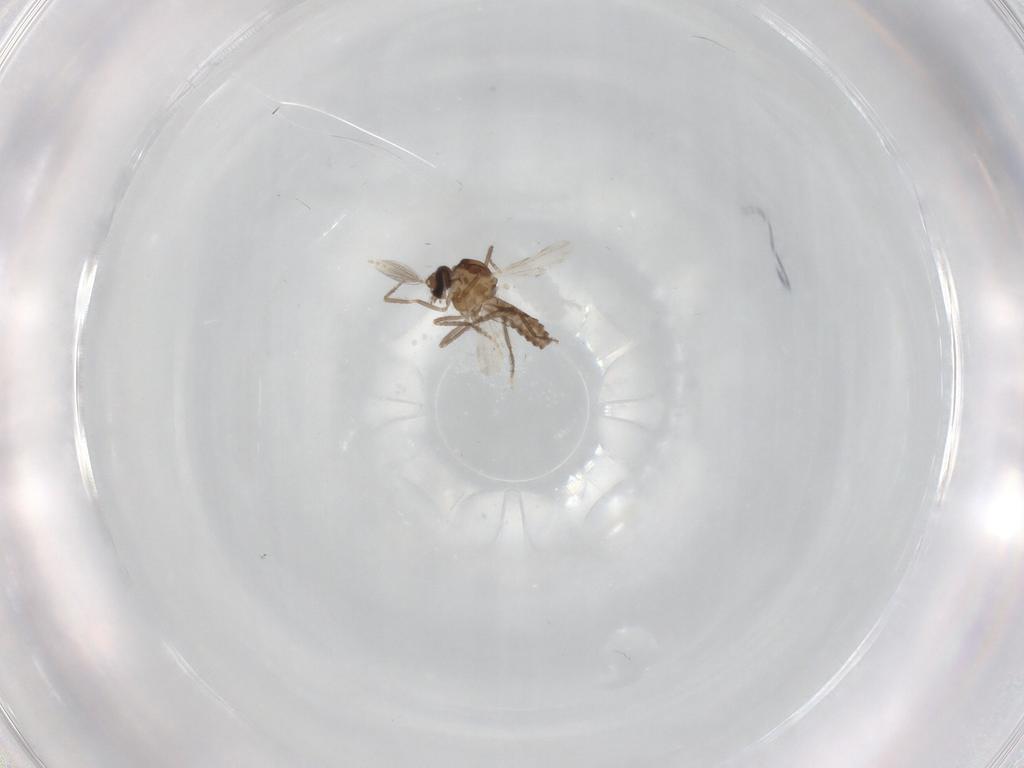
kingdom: Animalia
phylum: Arthropoda
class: Insecta
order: Diptera
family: Ceratopogonidae
